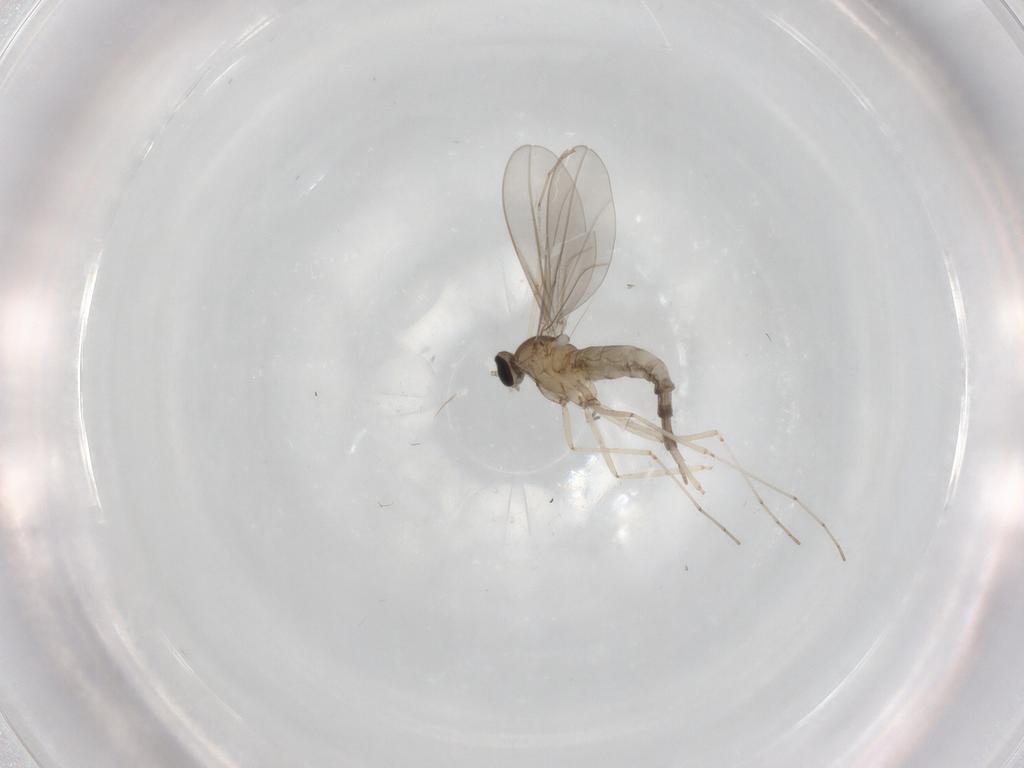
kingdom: Animalia
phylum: Arthropoda
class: Insecta
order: Diptera
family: Cecidomyiidae
